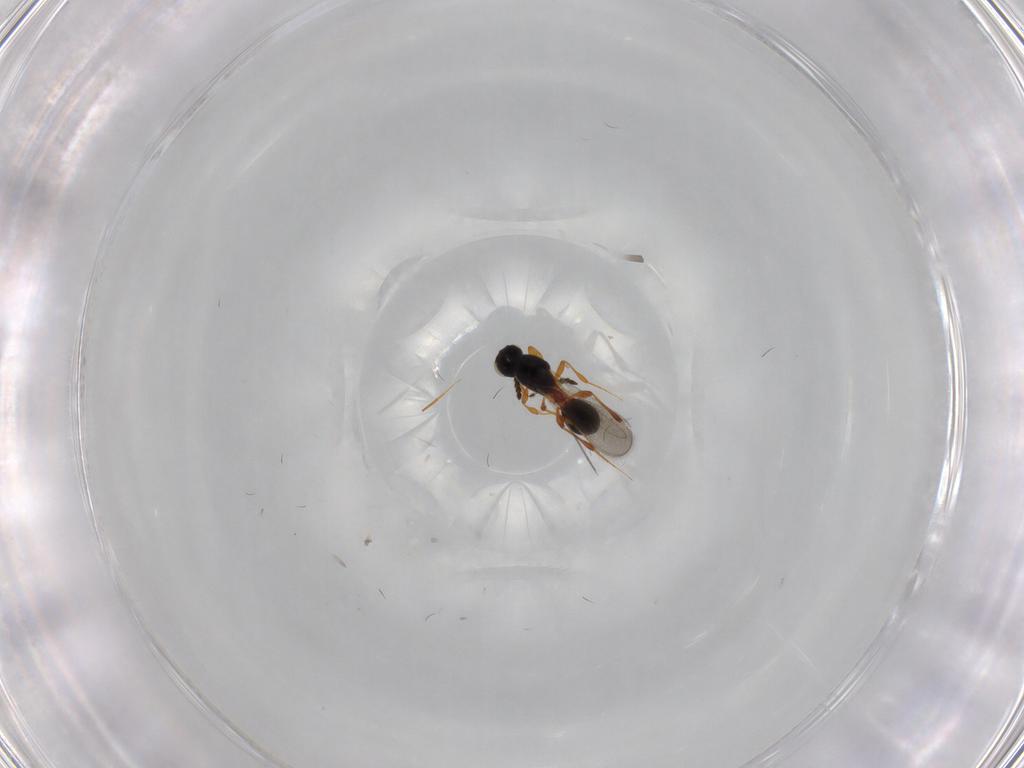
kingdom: Animalia
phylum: Arthropoda
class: Insecta
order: Hymenoptera
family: Platygastridae
